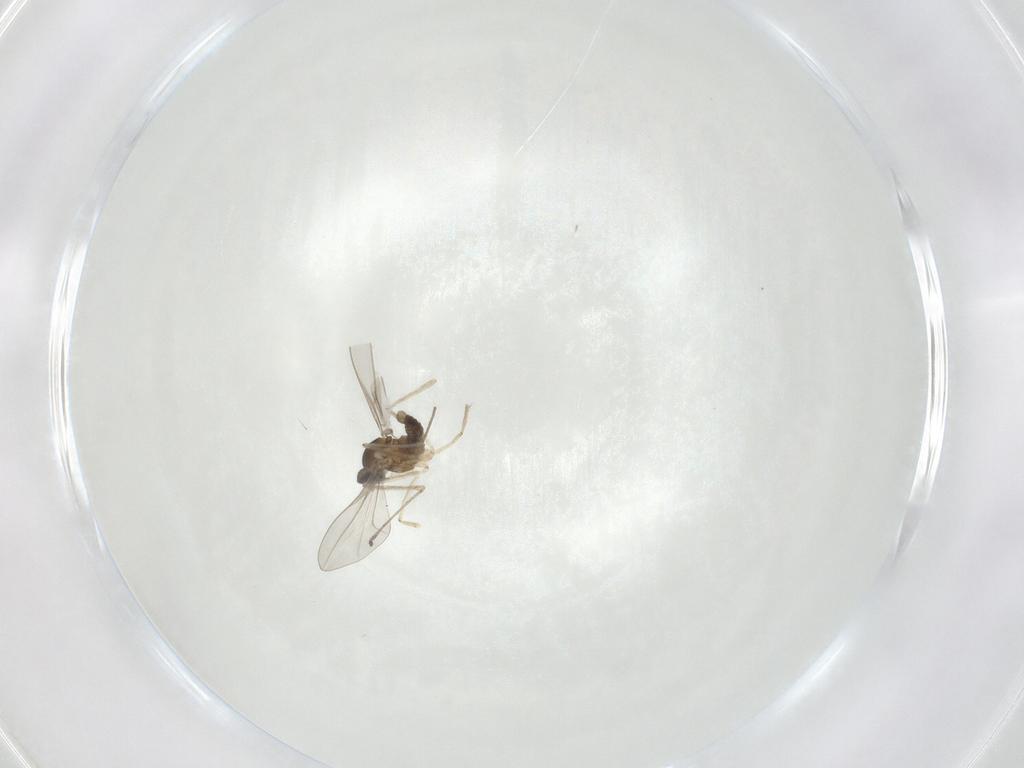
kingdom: Animalia
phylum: Arthropoda
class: Insecta
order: Diptera
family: Cecidomyiidae
